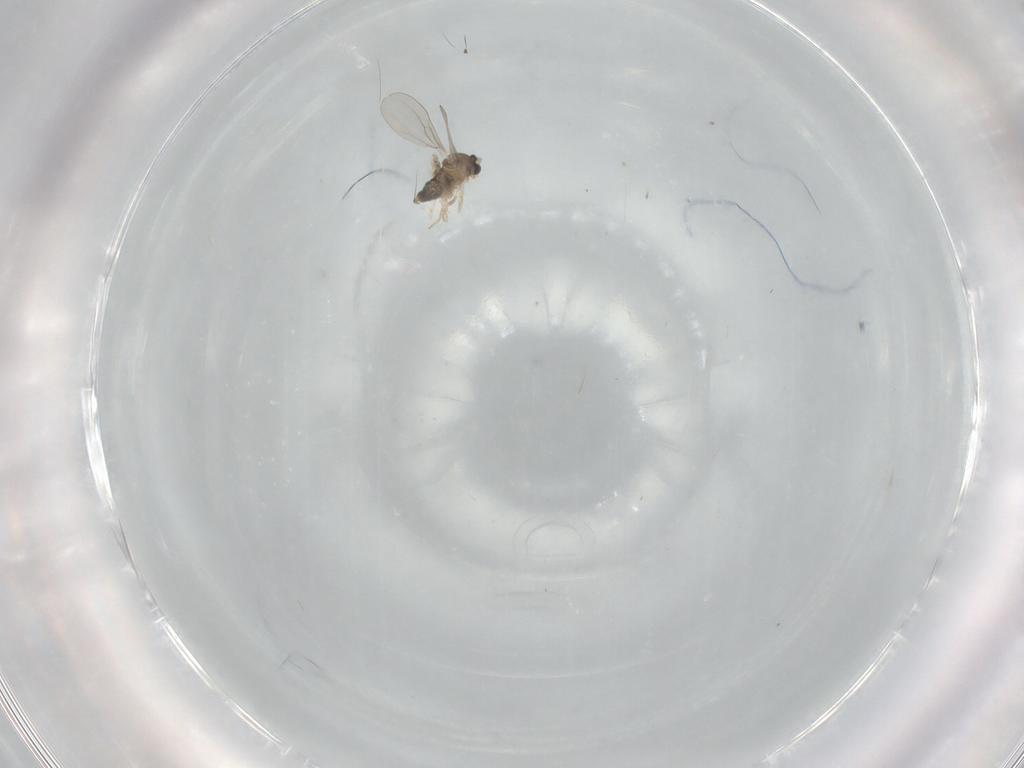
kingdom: Animalia
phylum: Arthropoda
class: Insecta
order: Diptera
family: Cecidomyiidae
